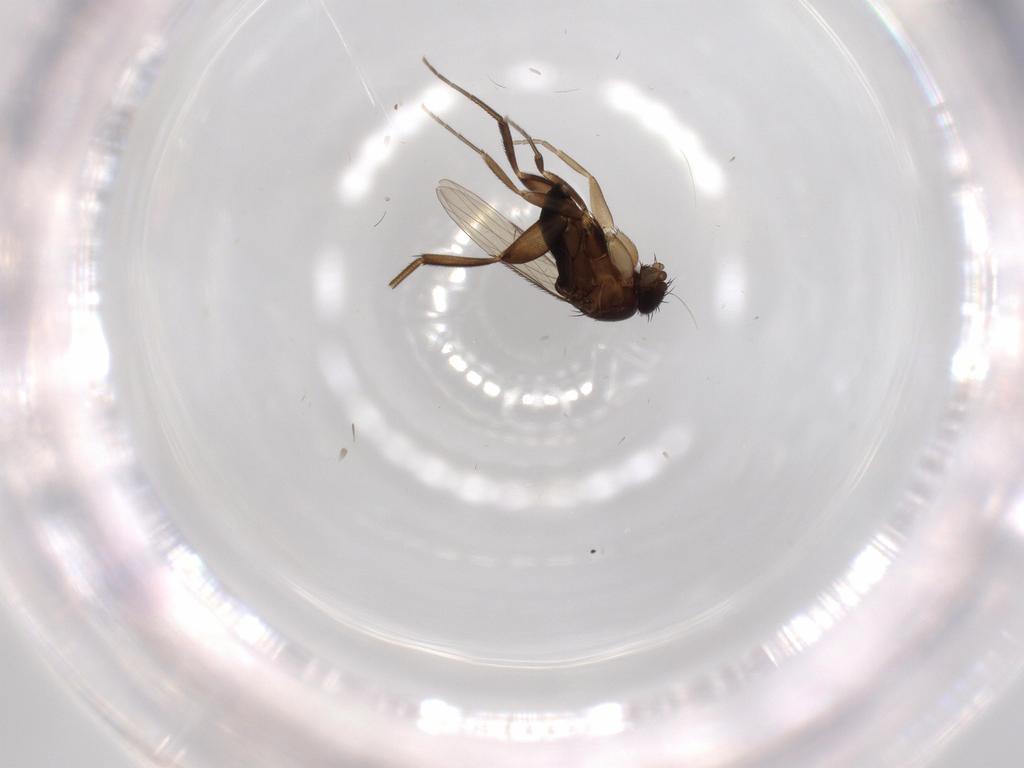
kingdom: Animalia
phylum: Arthropoda
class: Insecta
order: Diptera
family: Phoridae
